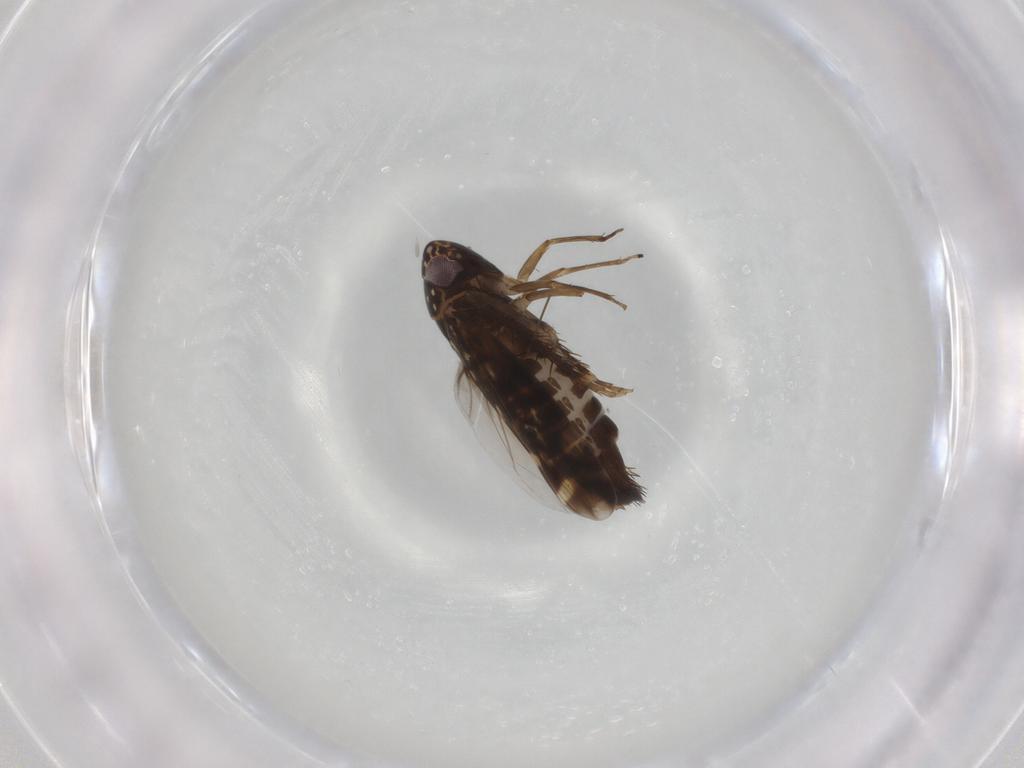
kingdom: Animalia
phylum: Arthropoda
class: Insecta
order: Hemiptera
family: Cicadellidae
